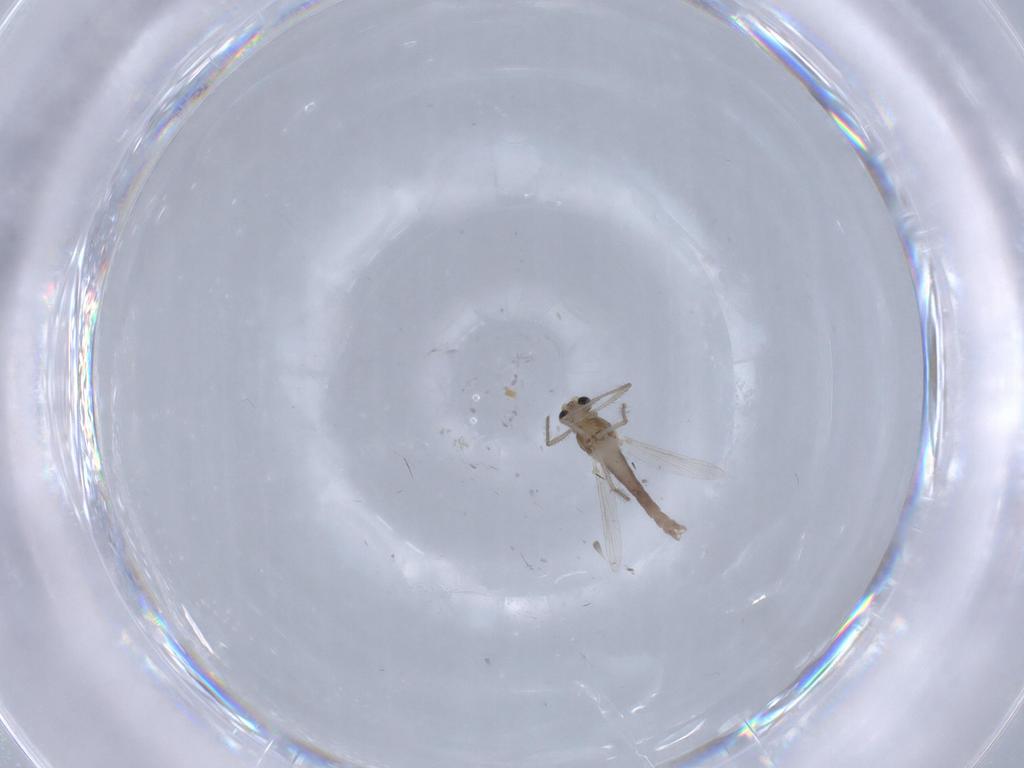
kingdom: Animalia
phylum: Arthropoda
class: Insecta
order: Diptera
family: Chironomidae
